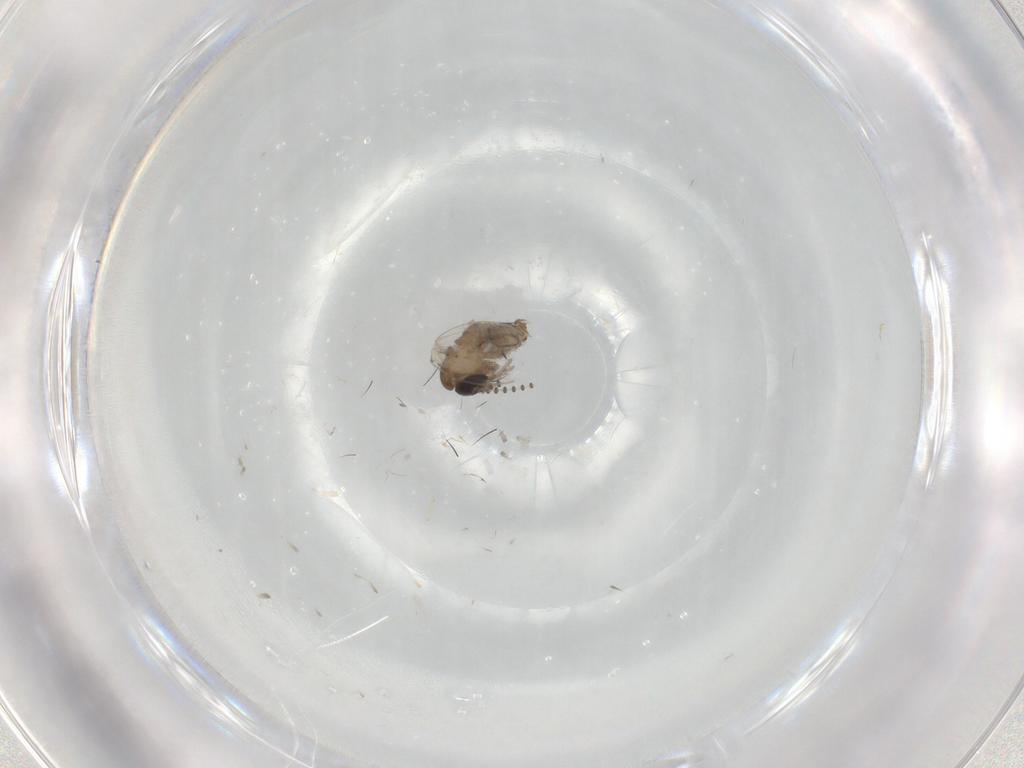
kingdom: Animalia
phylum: Arthropoda
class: Insecta
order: Diptera
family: Psychodidae
